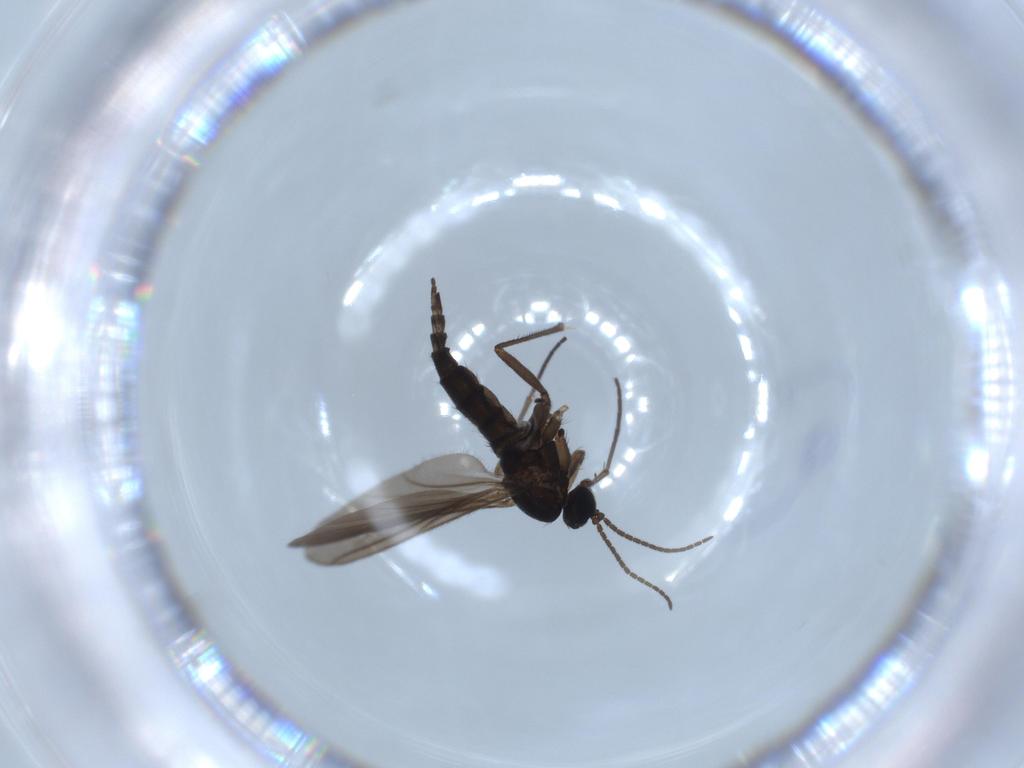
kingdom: Animalia
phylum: Arthropoda
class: Insecta
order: Diptera
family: Sciaridae
